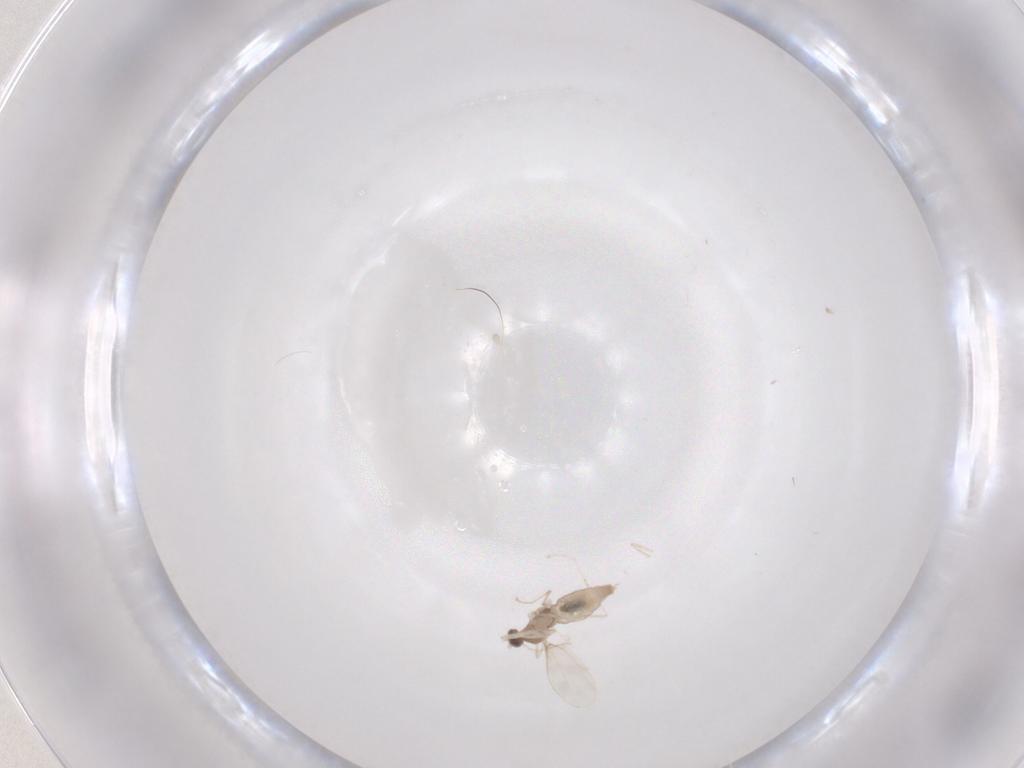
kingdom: Animalia
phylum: Arthropoda
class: Insecta
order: Diptera
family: Cecidomyiidae
